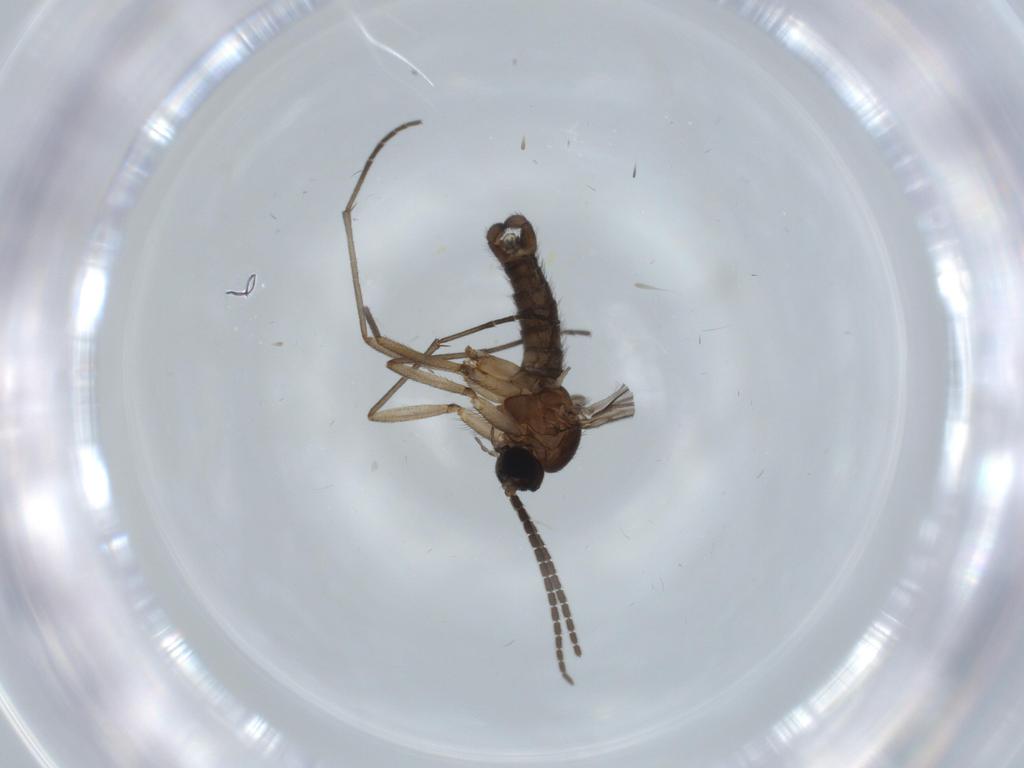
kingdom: Animalia
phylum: Arthropoda
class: Insecta
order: Diptera
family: Sciaridae
